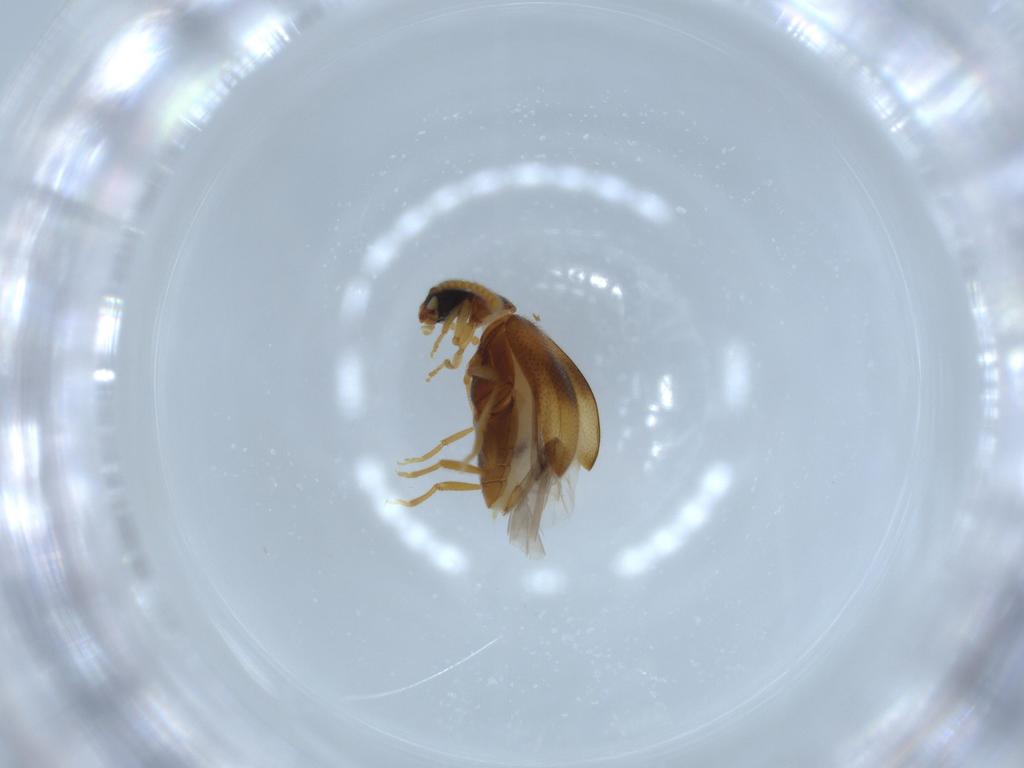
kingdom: Animalia
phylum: Arthropoda
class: Insecta
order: Coleoptera
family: Aderidae
